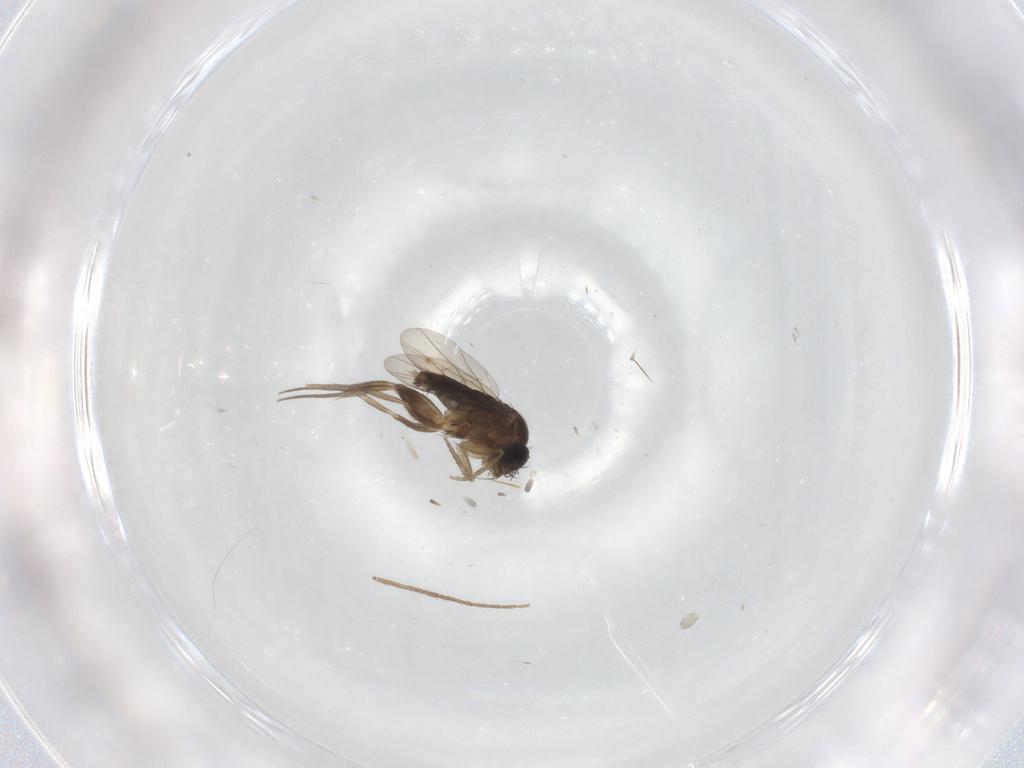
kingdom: Animalia
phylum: Arthropoda
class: Insecta
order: Diptera
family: Chironomidae
